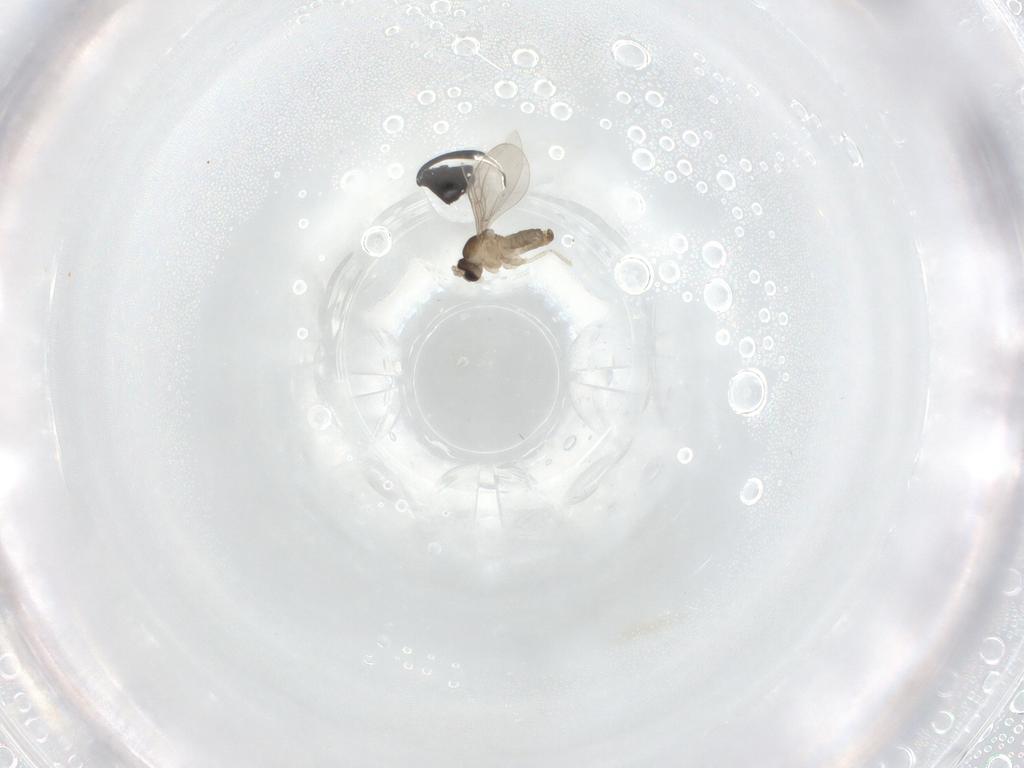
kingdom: Animalia
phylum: Arthropoda
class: Insecta
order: Diptera
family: Cecidomyiidae
